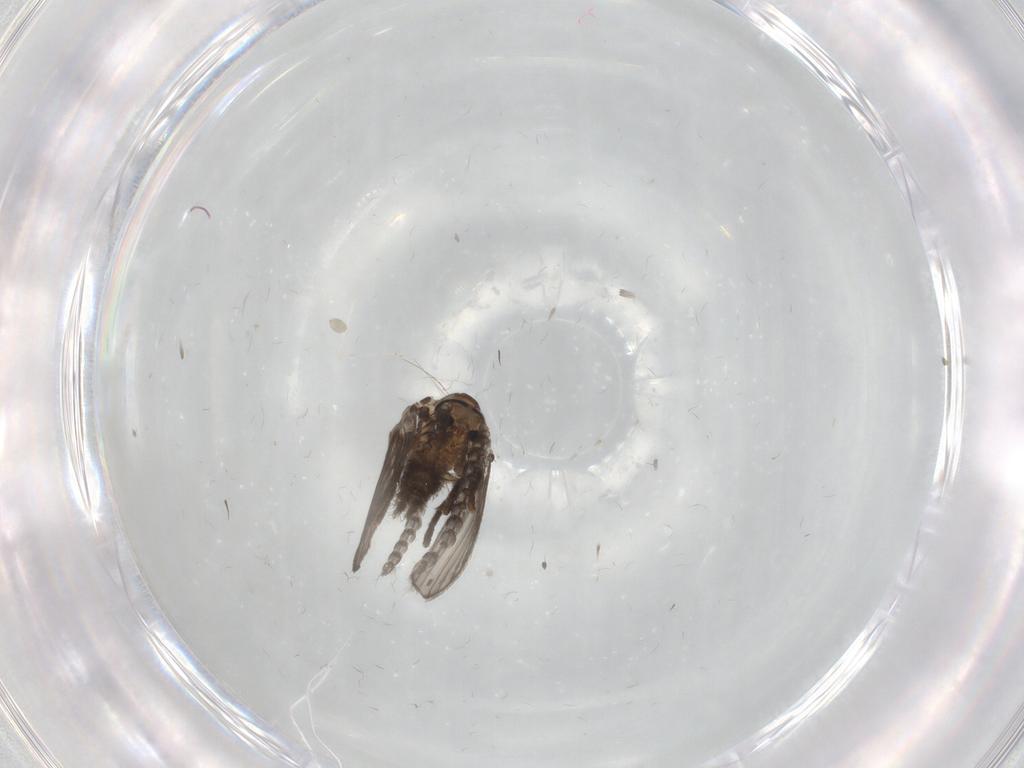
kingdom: Animalia
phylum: Arthropoda
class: Insecta
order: Diptera
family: Psychodidae
